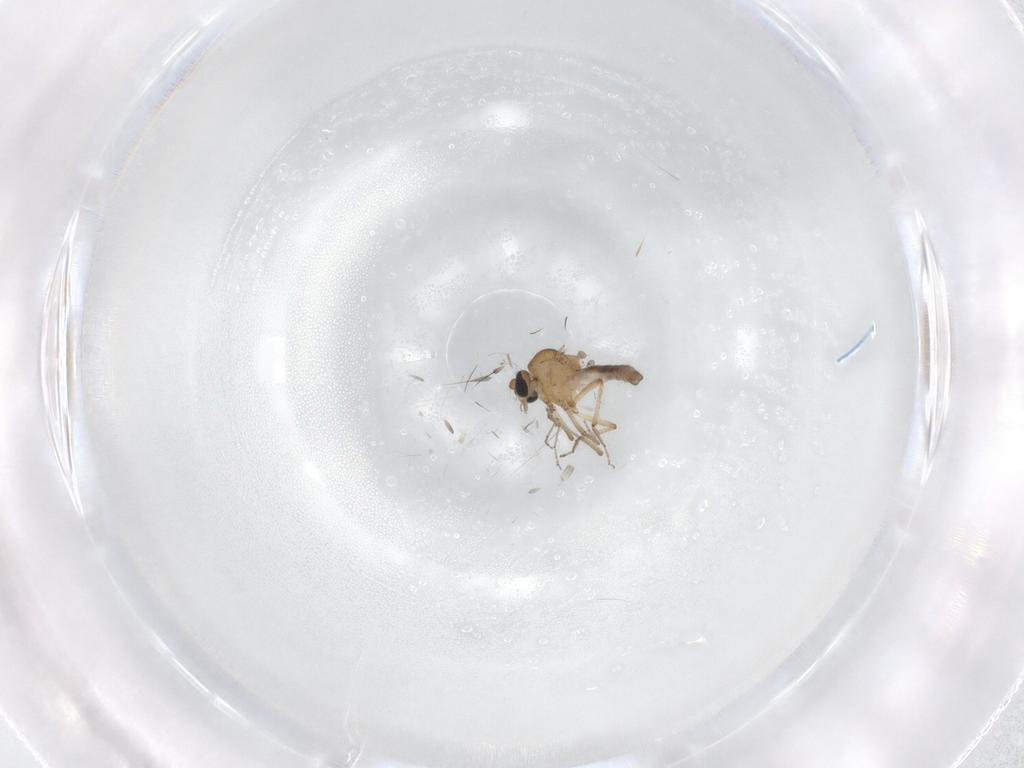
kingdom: Animalia
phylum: Arthropoda
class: Insecta
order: Diptera
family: Ceratopogonidae
